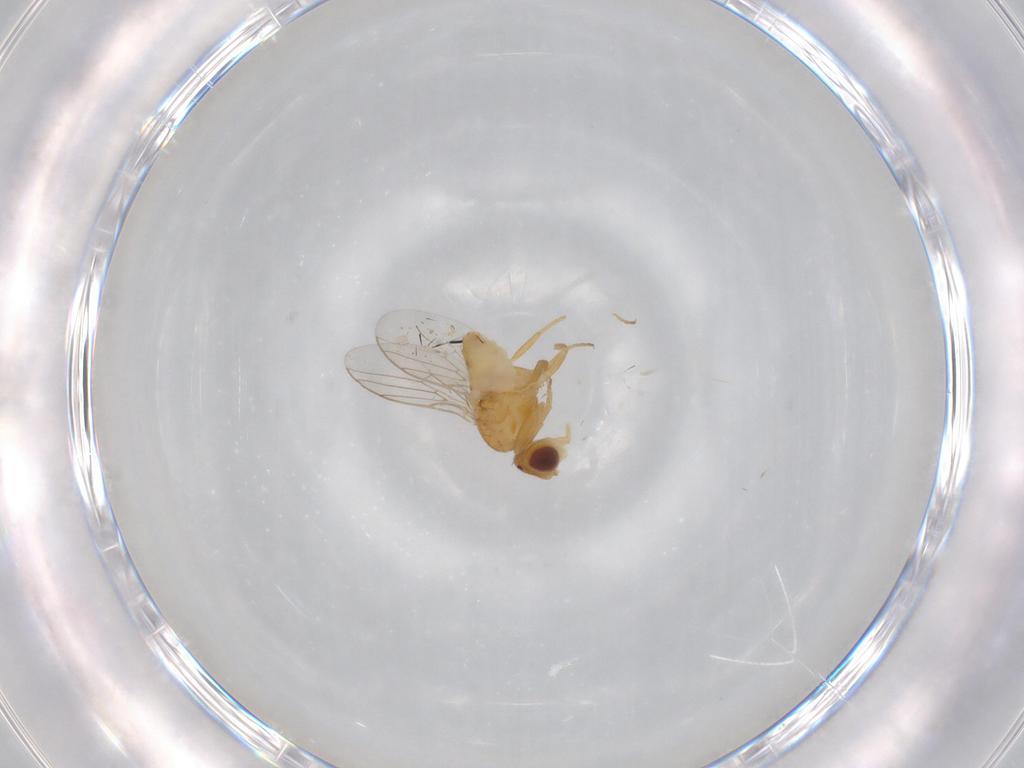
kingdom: Animalia
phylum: Arthropoda
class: Insecta
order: Diptera
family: Chloropidae
